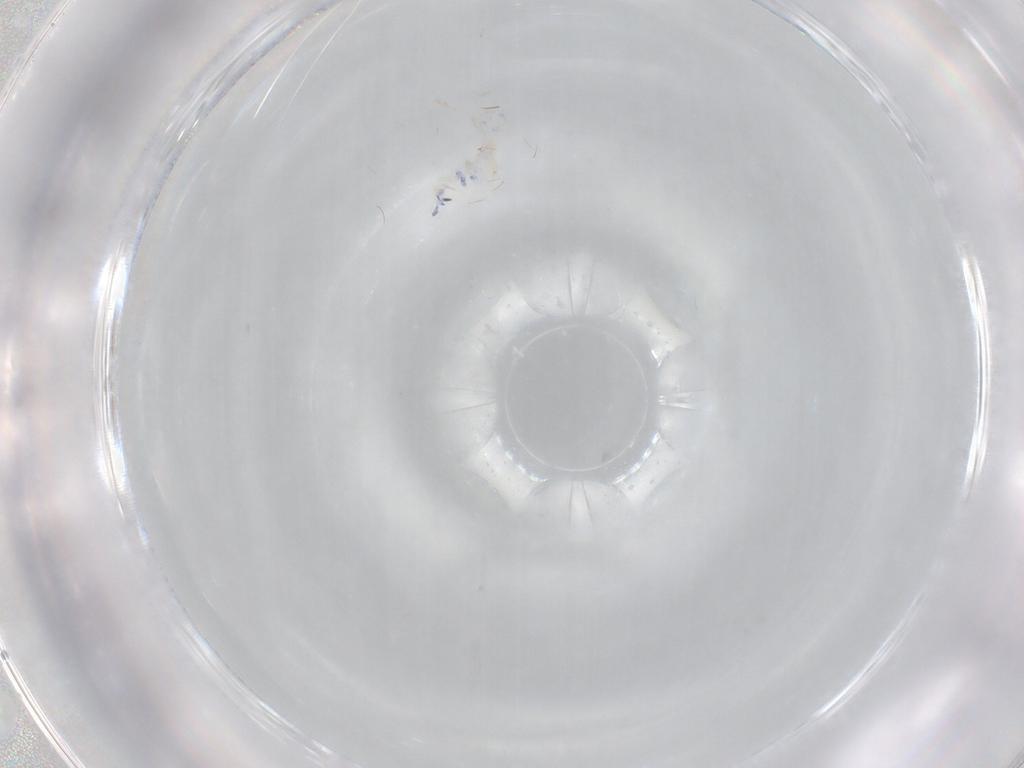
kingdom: Animalia
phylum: Arthropoda
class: Collembola
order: Entomobryomorpha
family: Entomobryidae
